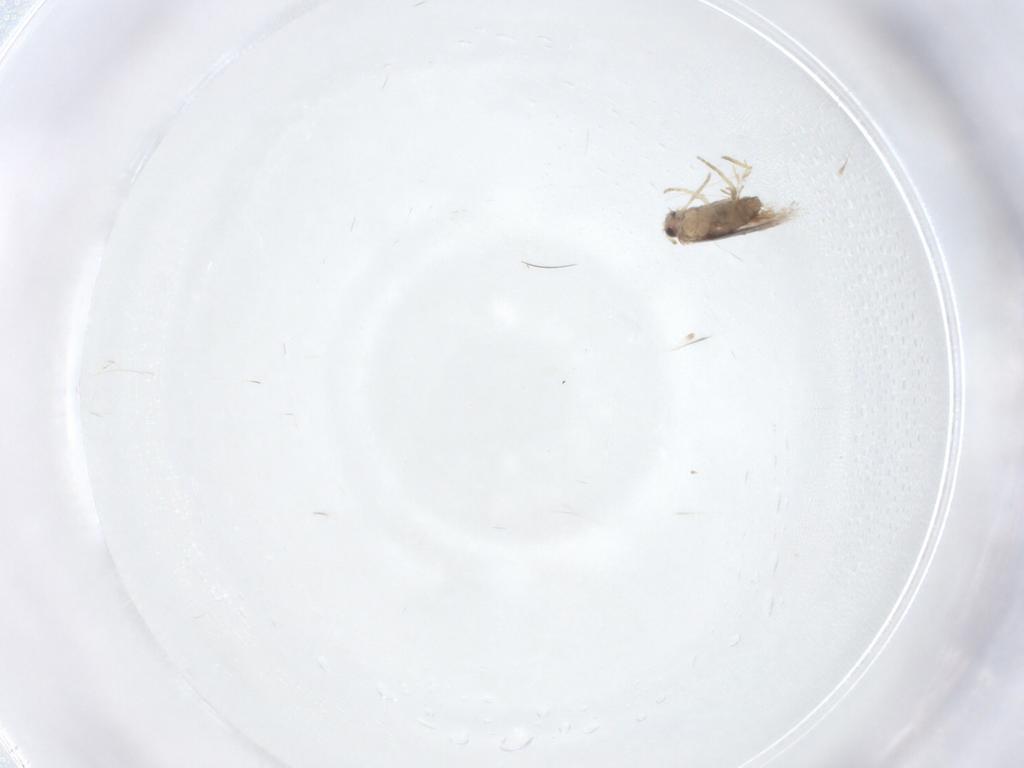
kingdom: Animalia
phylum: Arthropoda
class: Insecta
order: Lepidoptera
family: Nepticulidae
